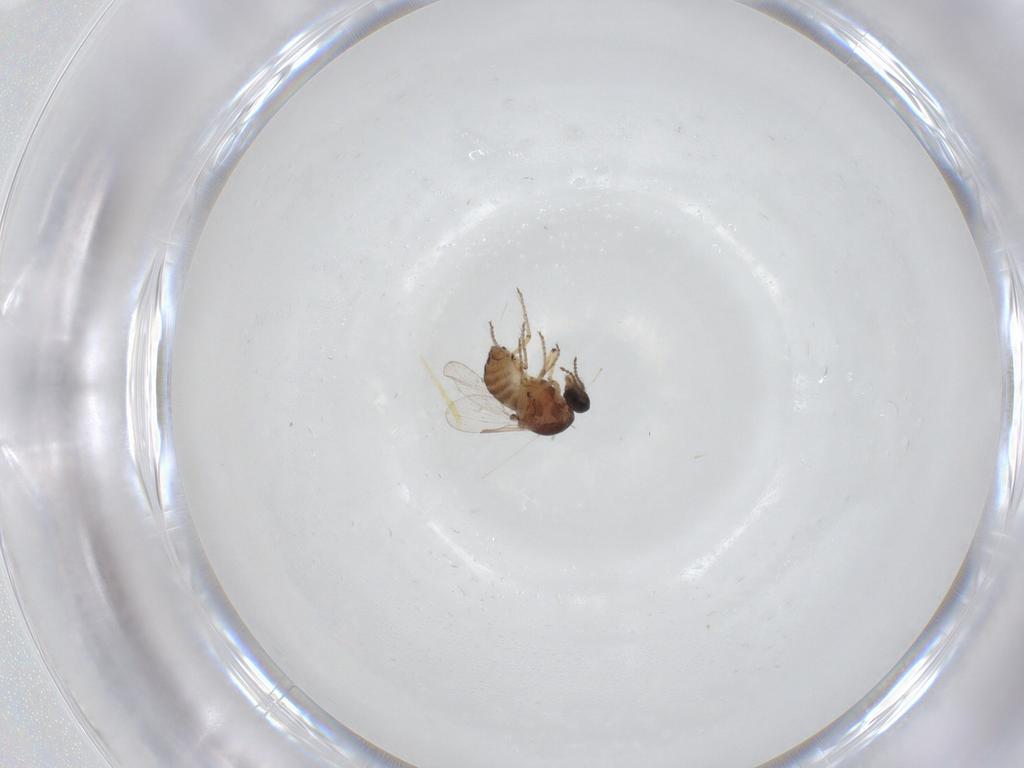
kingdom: Animalia
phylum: Arthropoda
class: Insecta
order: Diptera
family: Ceratopogonidae
